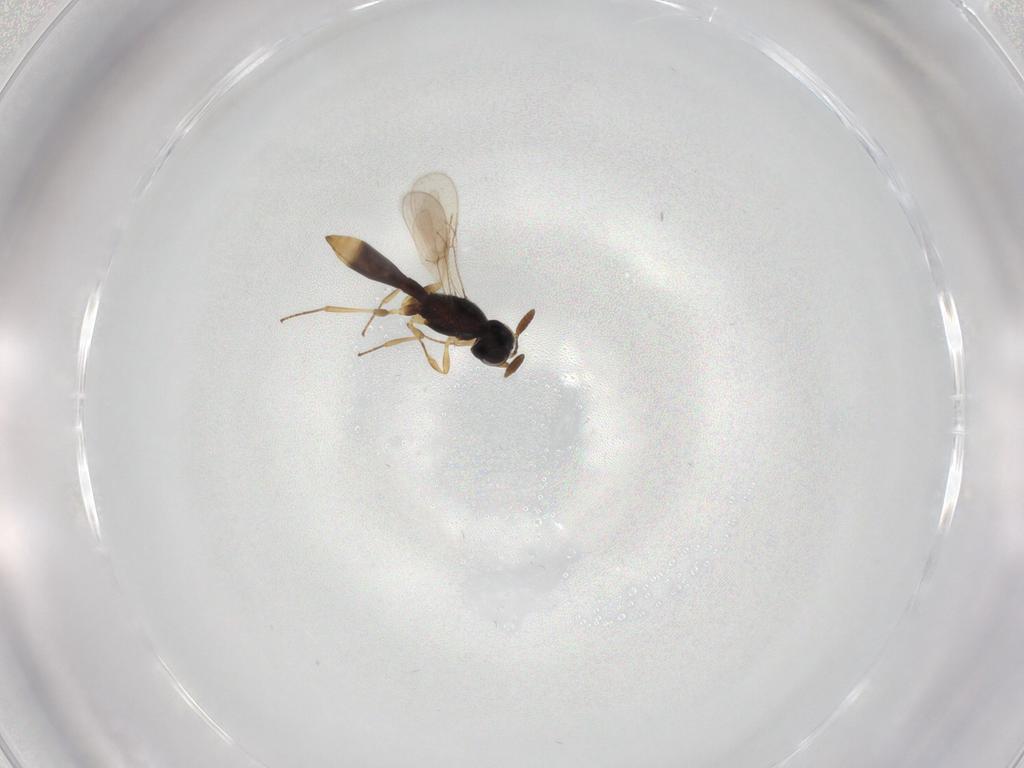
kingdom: Animalia
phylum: Arthropoda
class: Insecta
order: Hymenoptera
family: Scelionidae
